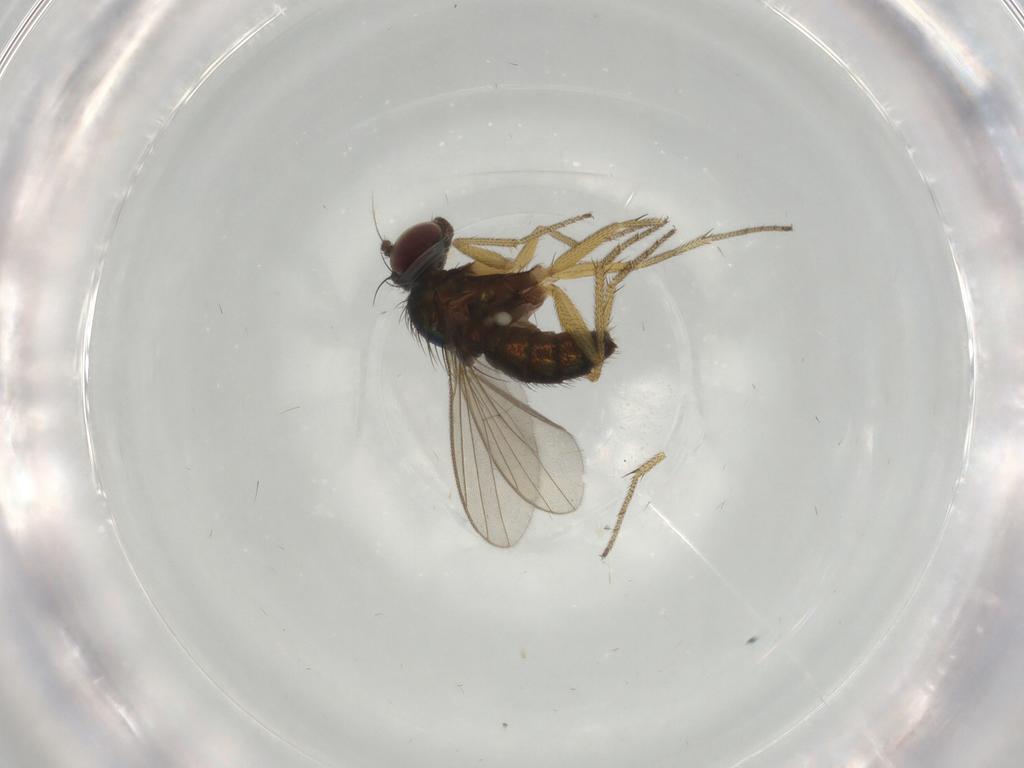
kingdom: Animalia
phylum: Arthropoda
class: Insecta
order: Diptera
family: Dolichopodidae
